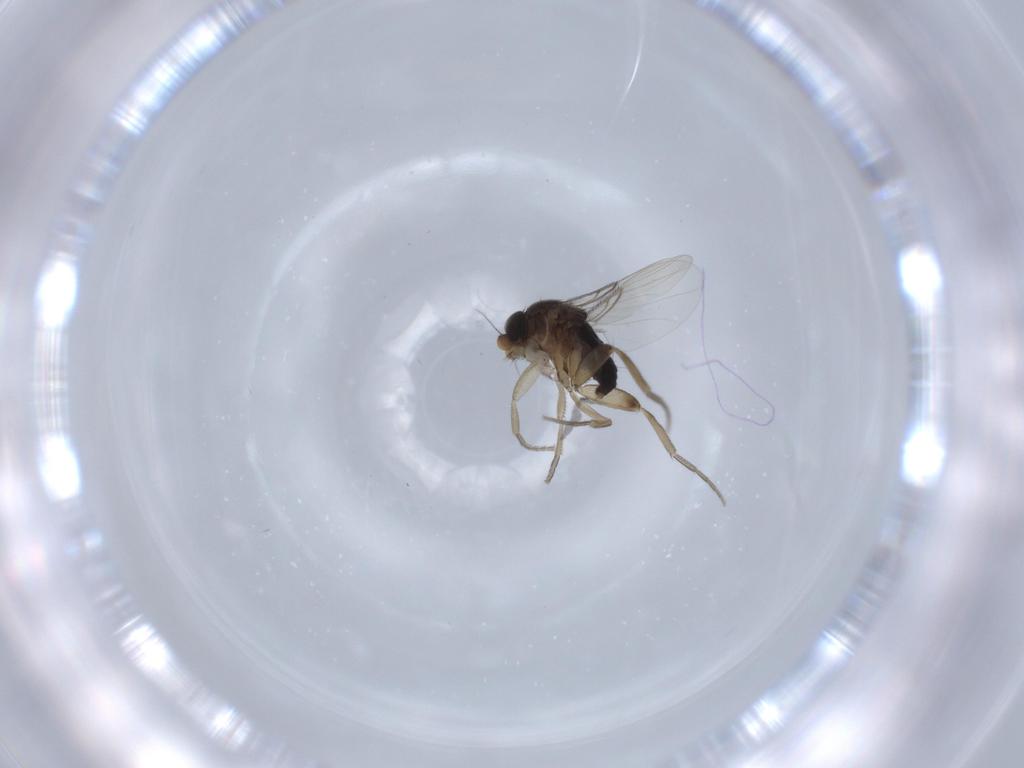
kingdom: Animalia
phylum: Arthropoda
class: Insecta
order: Diptera
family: Phoridae
